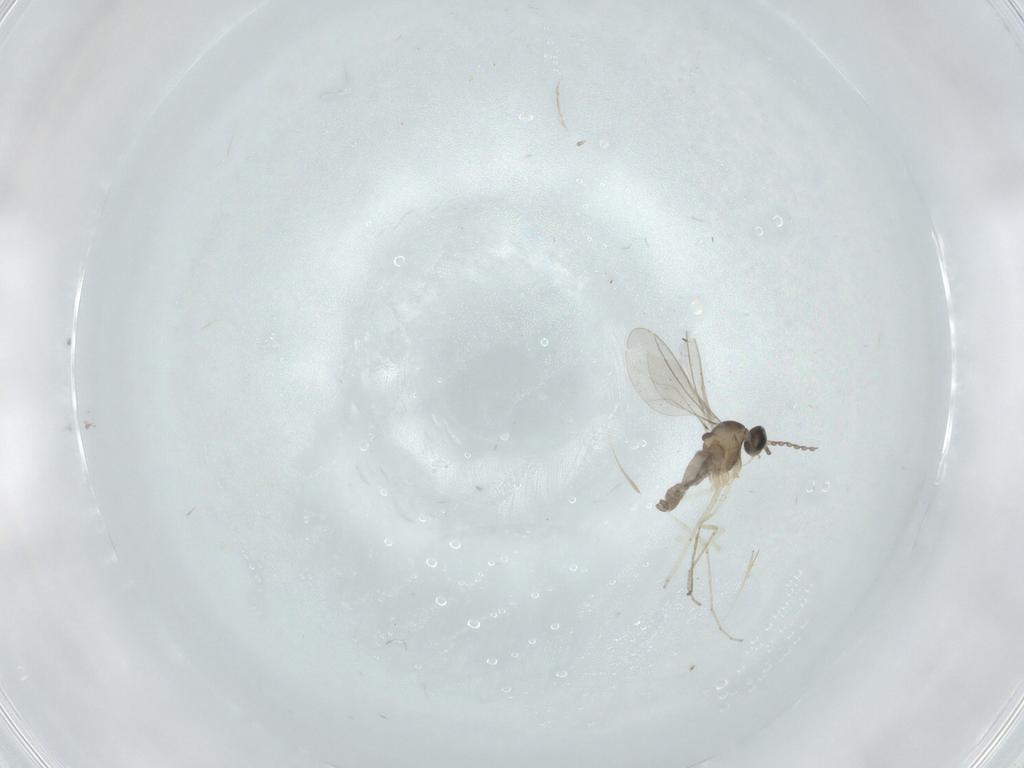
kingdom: Animalia
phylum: Arthropoda
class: Insecta
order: Diptera
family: Cecidomyiidae
